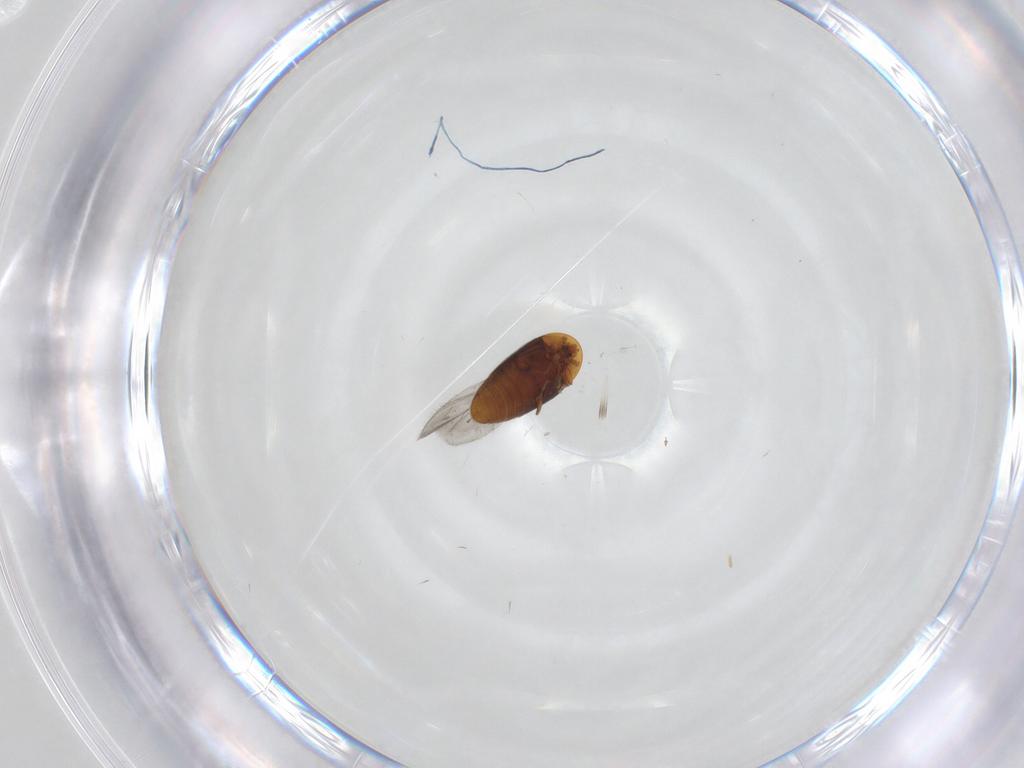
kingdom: Animalia
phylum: Arthropoda
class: Insecta
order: Coleoptera
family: Corylophidae
